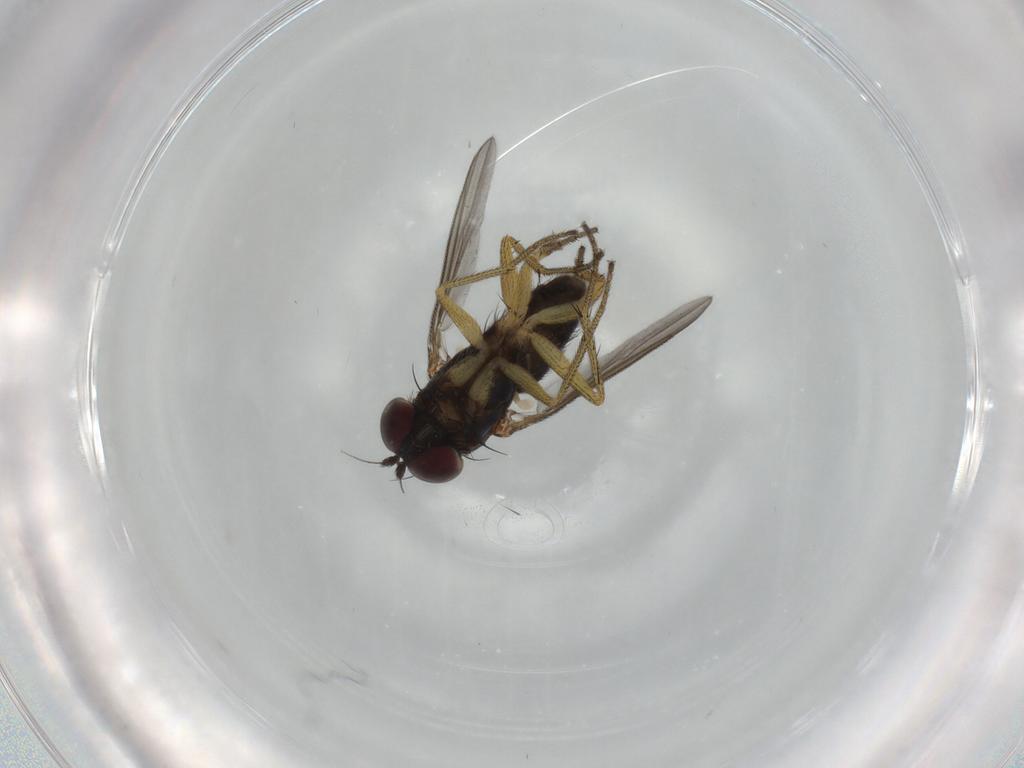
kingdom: Animalia
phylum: Arthropoda
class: Insecta
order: Diptera
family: Dolichopodidae
